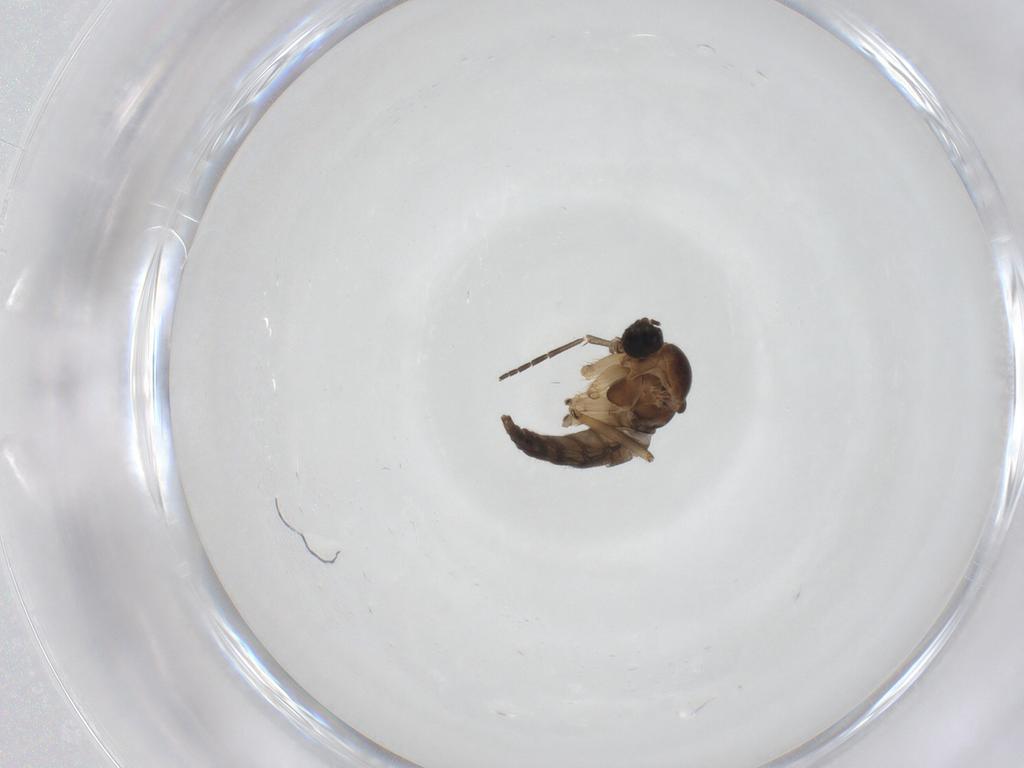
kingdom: Animalia
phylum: Arthropoda
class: Insecta
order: Diptera
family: Sciaridae
